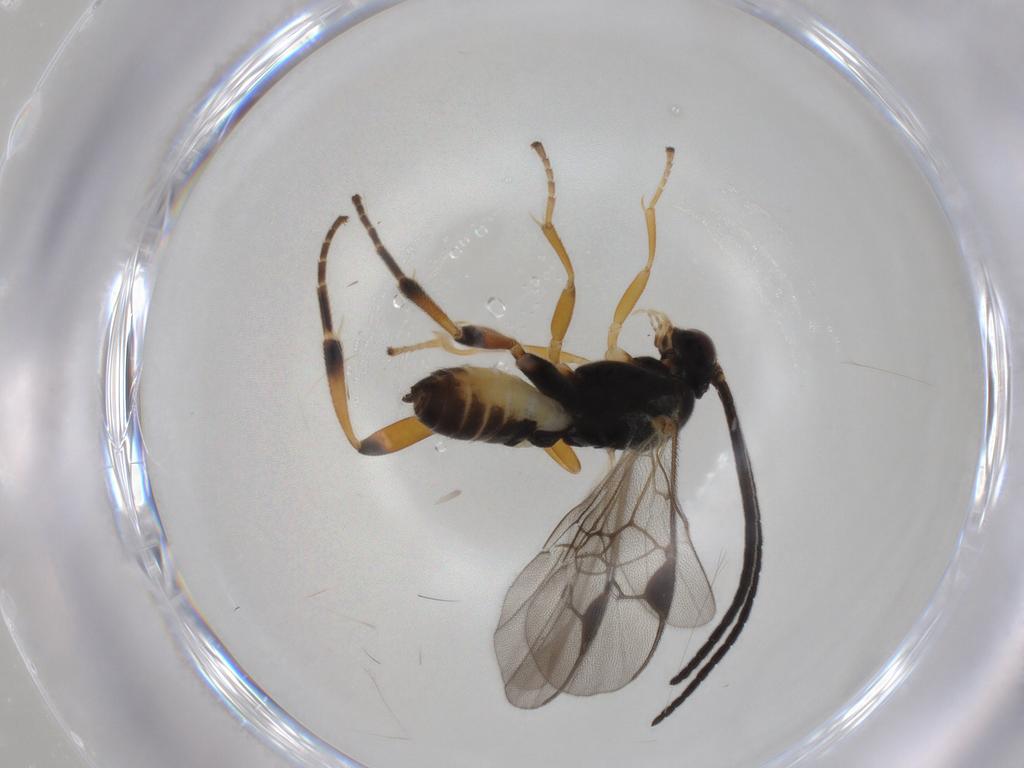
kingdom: Animalia
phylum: Arthropoda
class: Insecta
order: Hymenoptera
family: Braconidae
